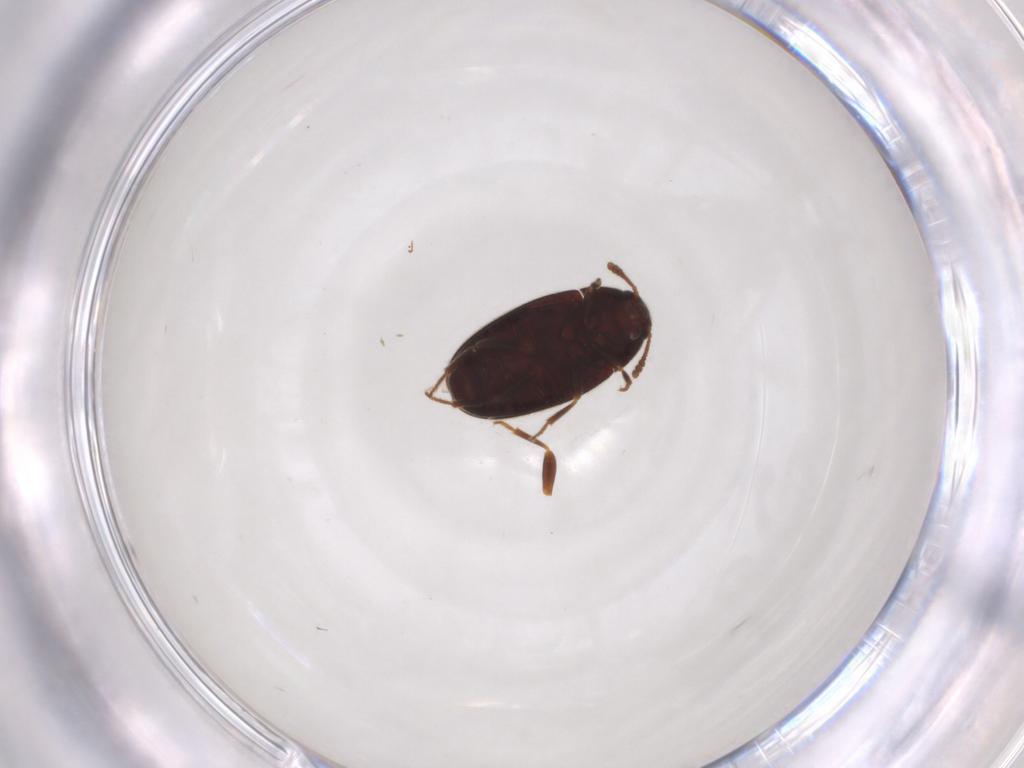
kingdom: Animalia
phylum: Arthropoda
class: Insecta
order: Coleoptera
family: Mycetophagidae
